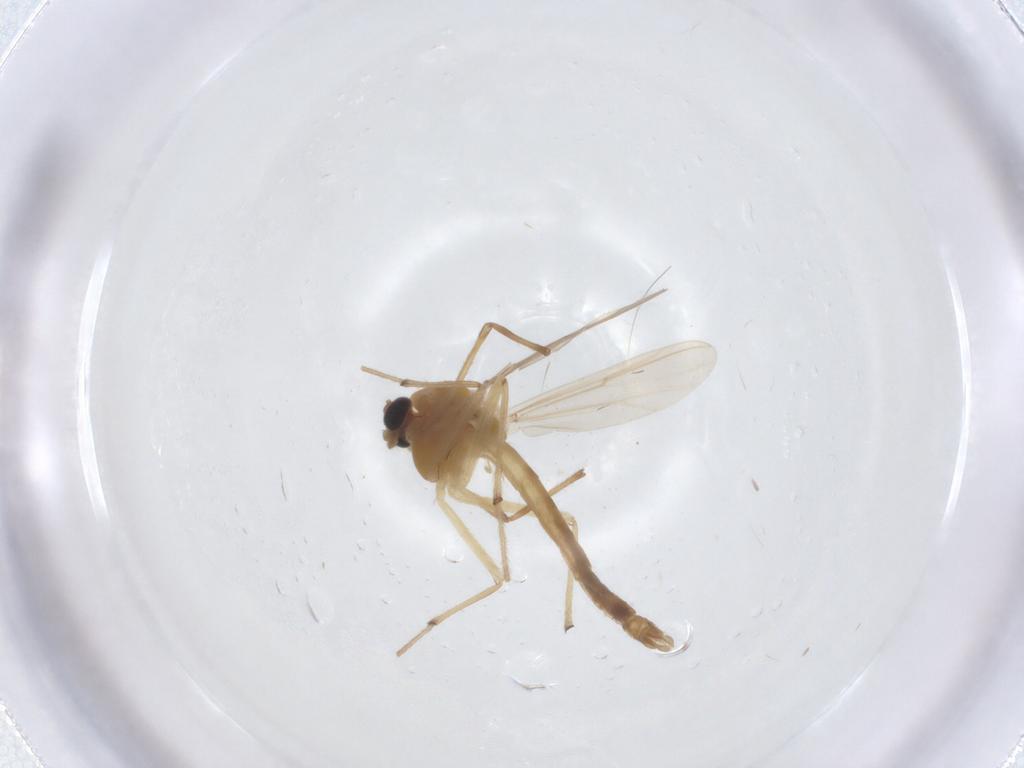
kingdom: Animalia
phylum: Arthropoda
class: Insecta
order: Diptera
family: Chironomidae
